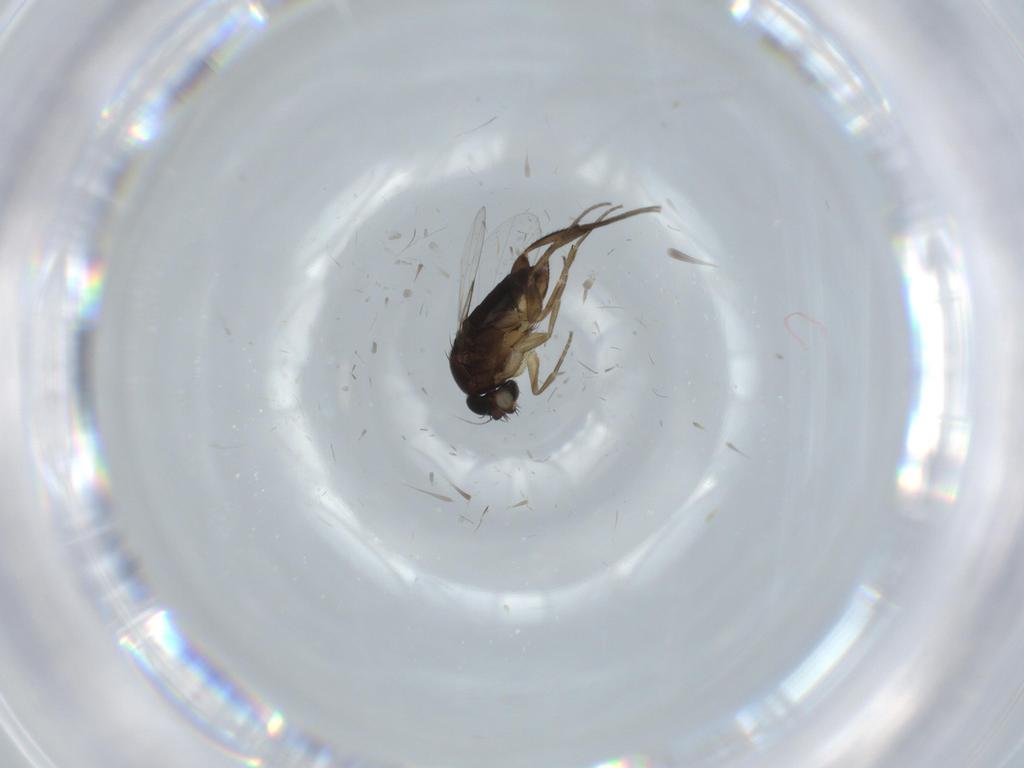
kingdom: Animalia
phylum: Arthropoda
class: Insecta
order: Diptera
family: Phoridae
